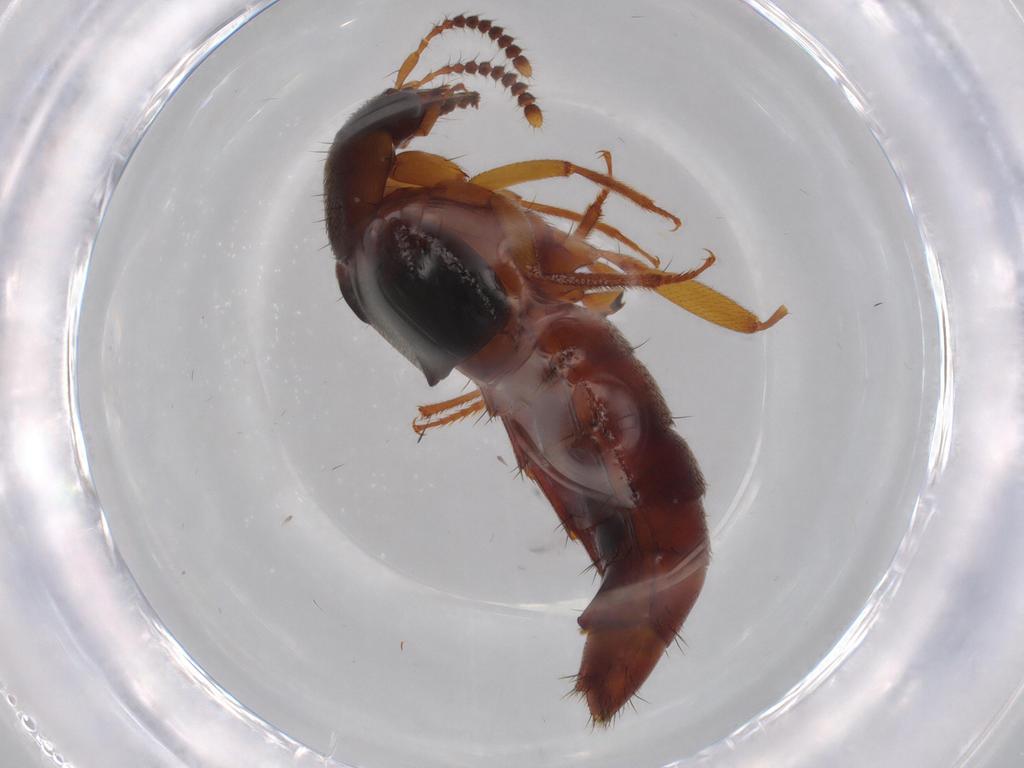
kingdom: Animalia
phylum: Arthropoda
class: Insecta
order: Coleoptera
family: Staphylinidae
